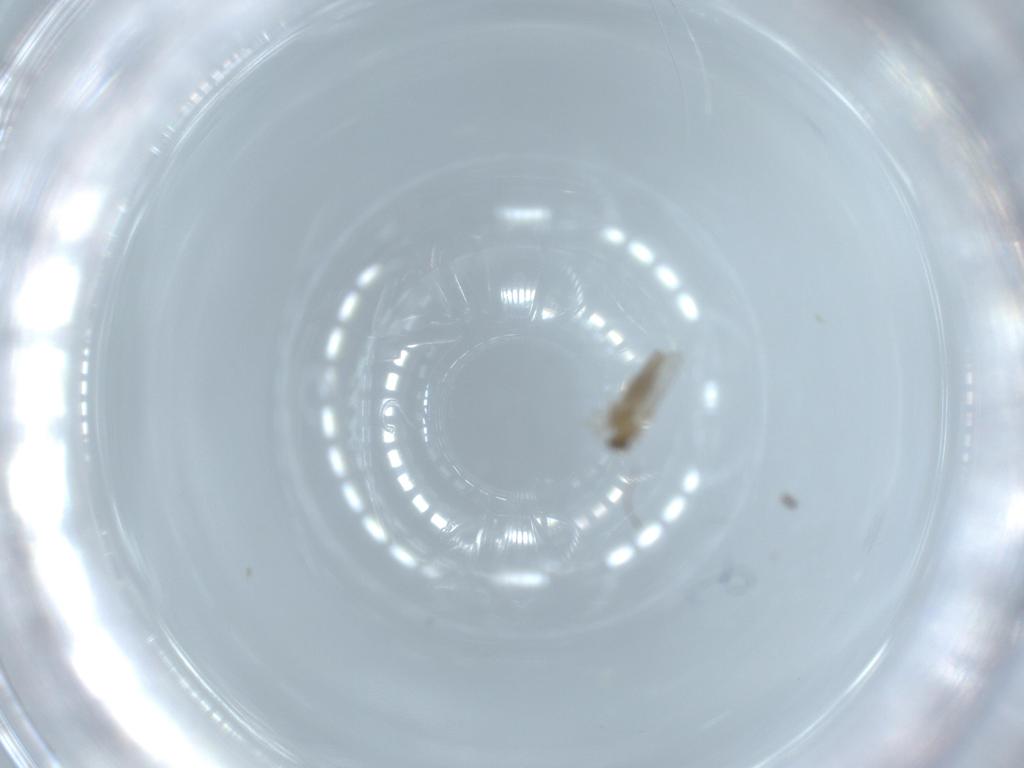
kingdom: Animalia
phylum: Arthropoda
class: Insecta
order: Diptera
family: Cecidomyiidae
